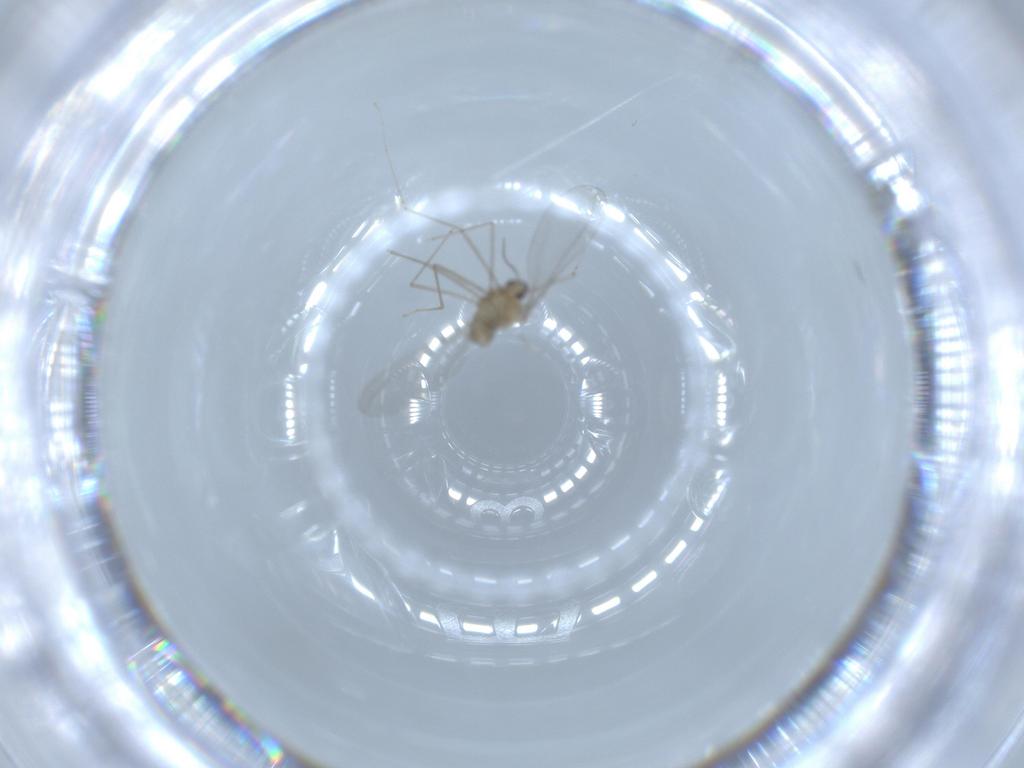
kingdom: Animalia
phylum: Arthropoda
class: Insecta
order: Diptera
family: Cecidomyiidae
